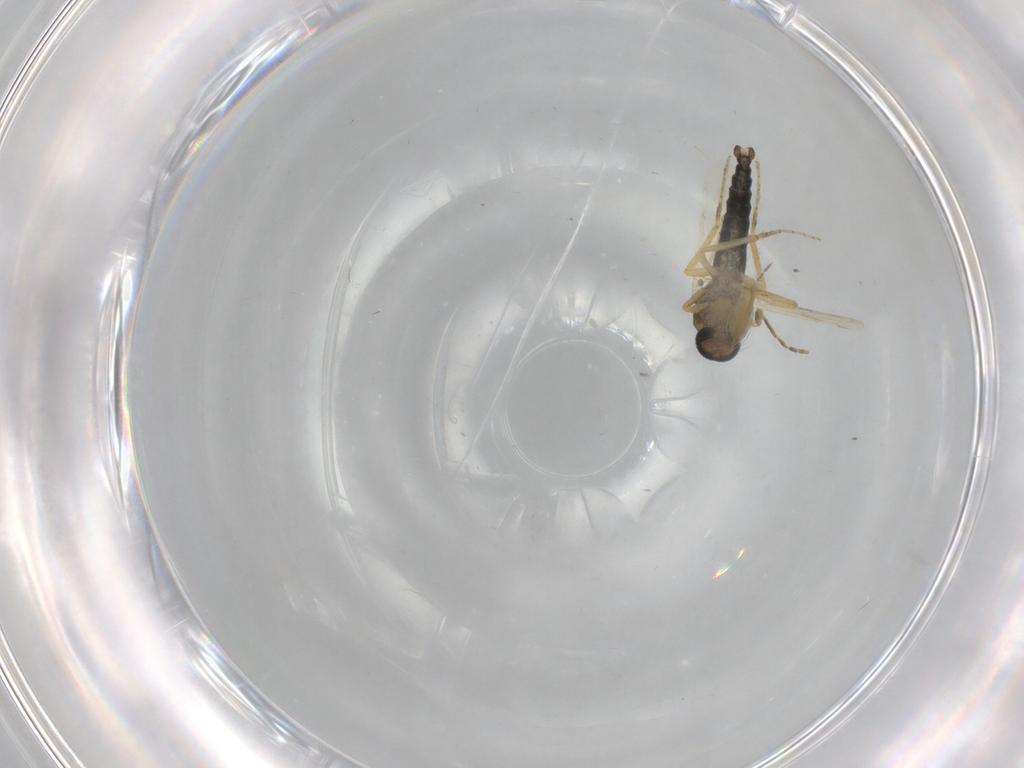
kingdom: Animalia
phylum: Arthropoda
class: Insecta
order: Diptera
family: Ceratopogonidae
